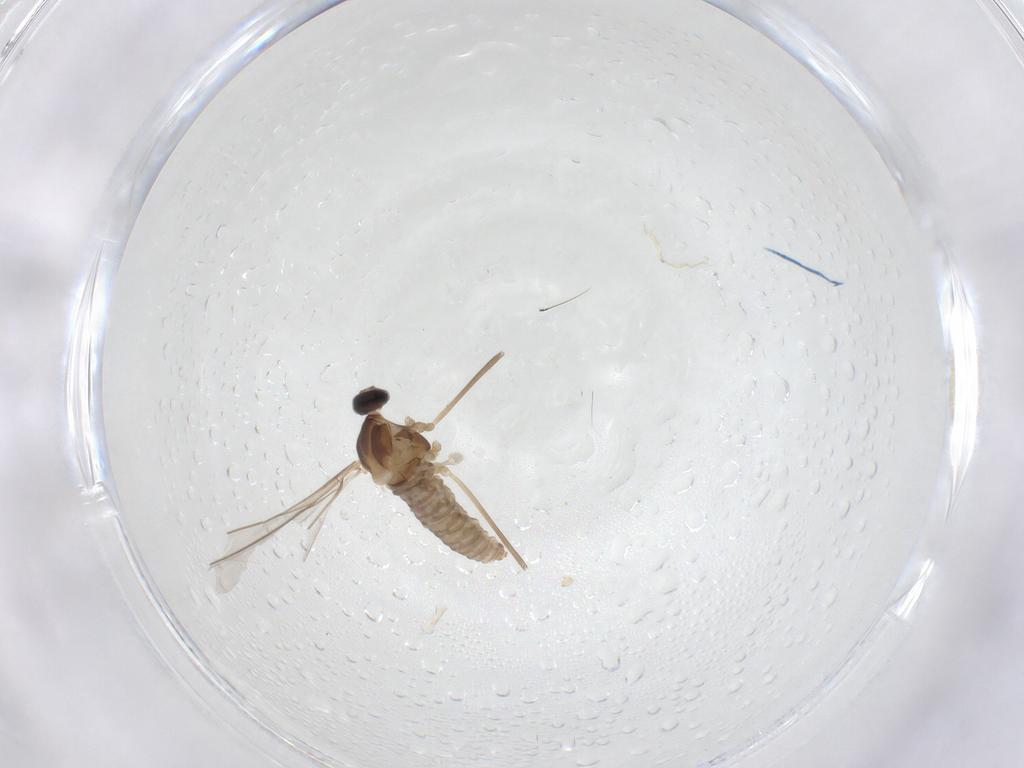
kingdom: Animalia
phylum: Arthropoda
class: Insecta
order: Diptera
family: Cecidomyiidae
